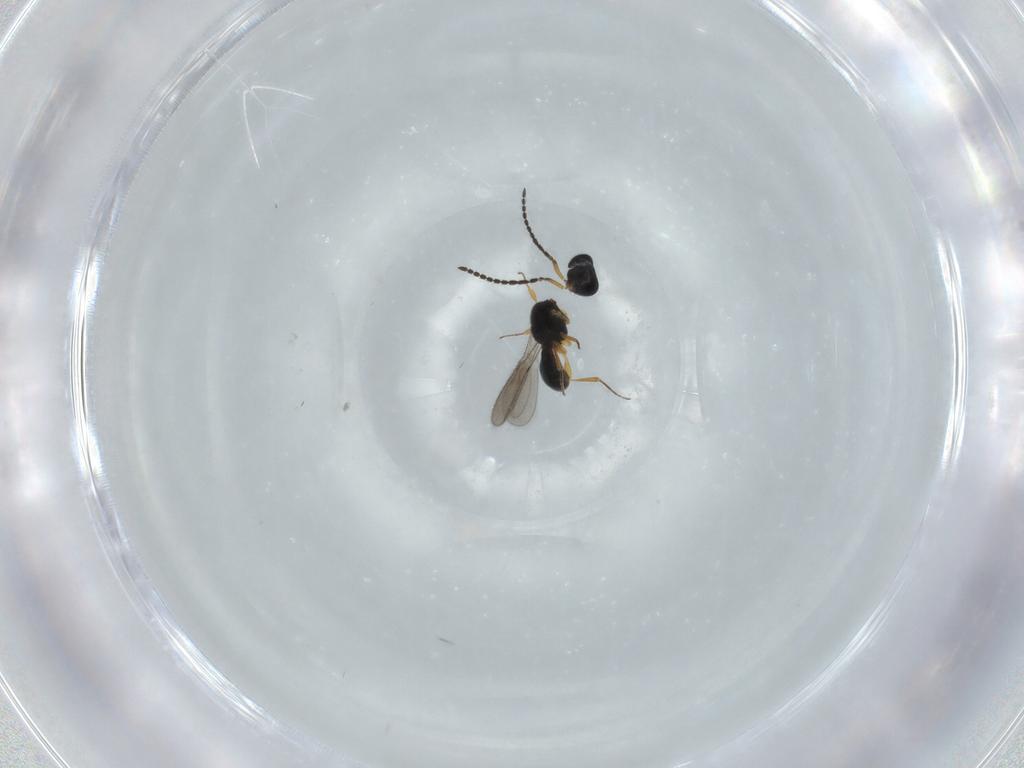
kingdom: Animalia
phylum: Arthropoda
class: Insecta
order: Hymenoptera
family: Scelionidae
